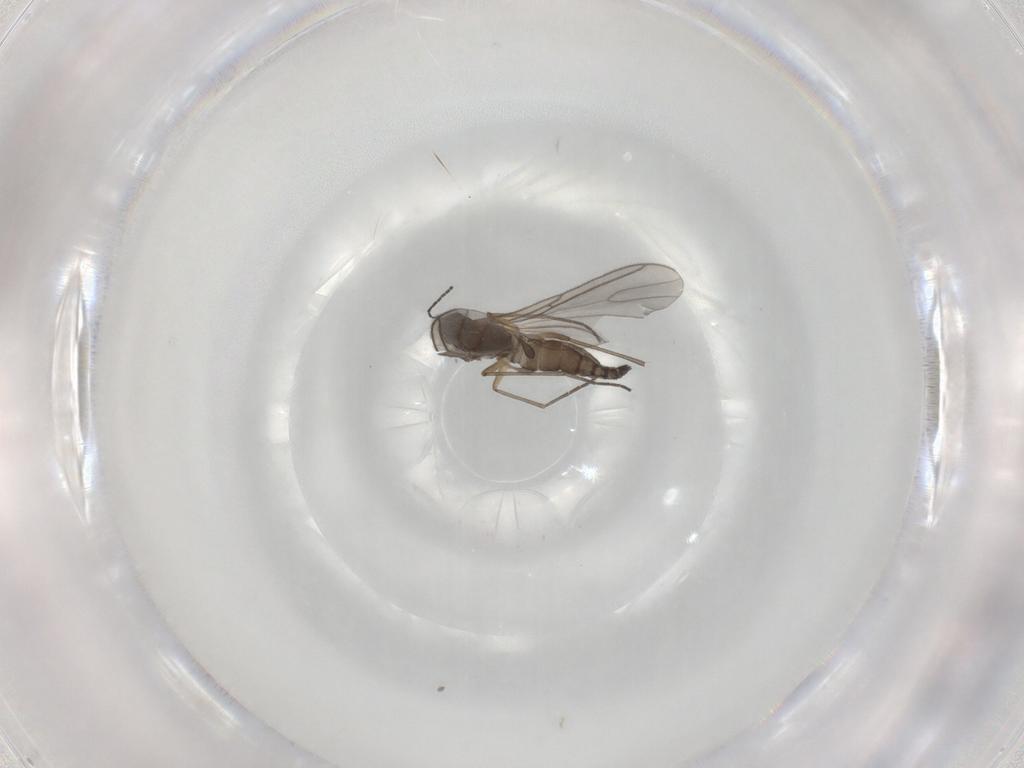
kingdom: Animalia
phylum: Arthropoda
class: Insecta
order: Diptera
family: Sciaridae
